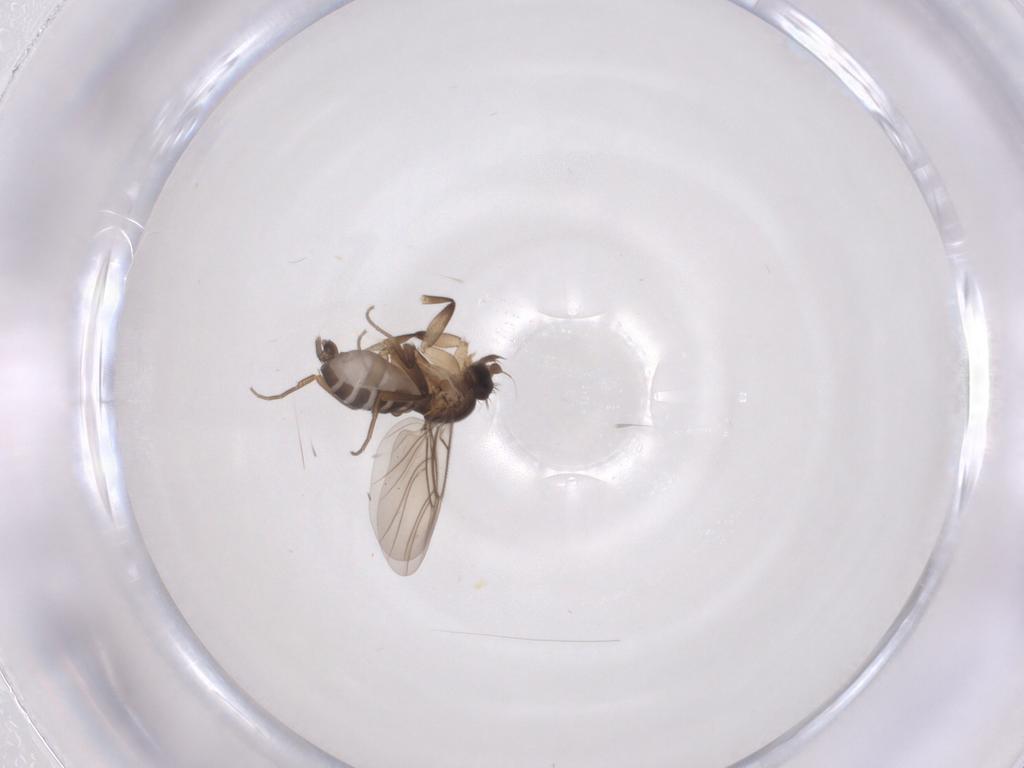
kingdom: Animalia
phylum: Arthropoda
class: Insecta
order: Diptera
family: Phoridae
